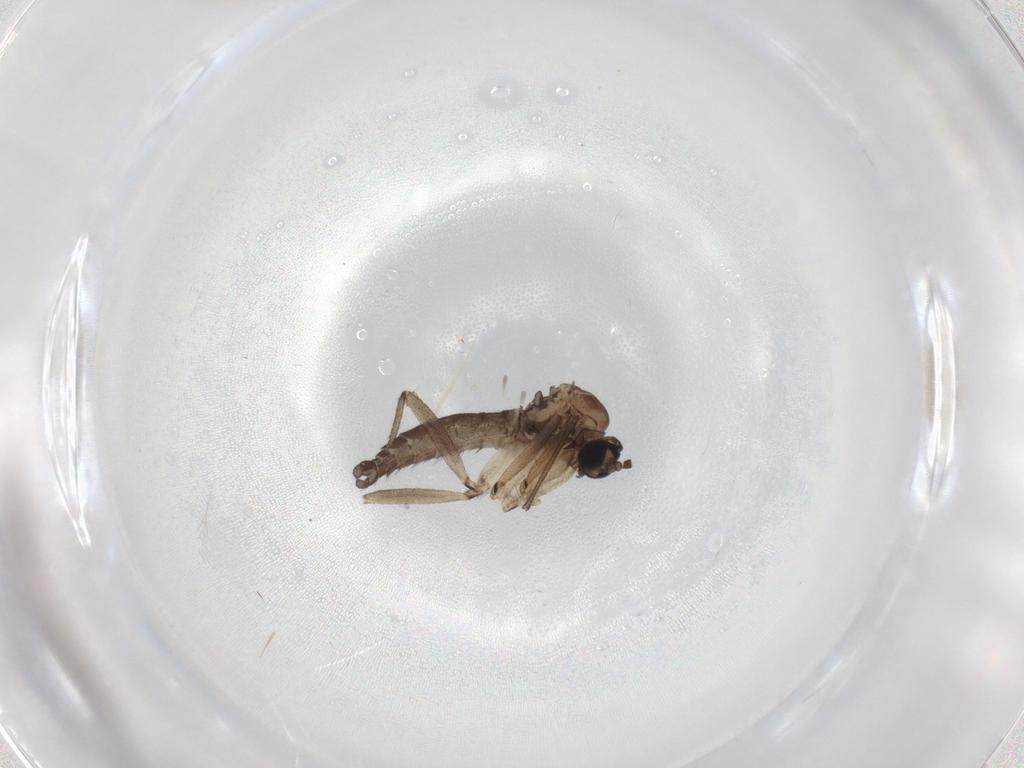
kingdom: Animalia
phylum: Arthropoda
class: Insecta
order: Diptera
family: Sciaridae
